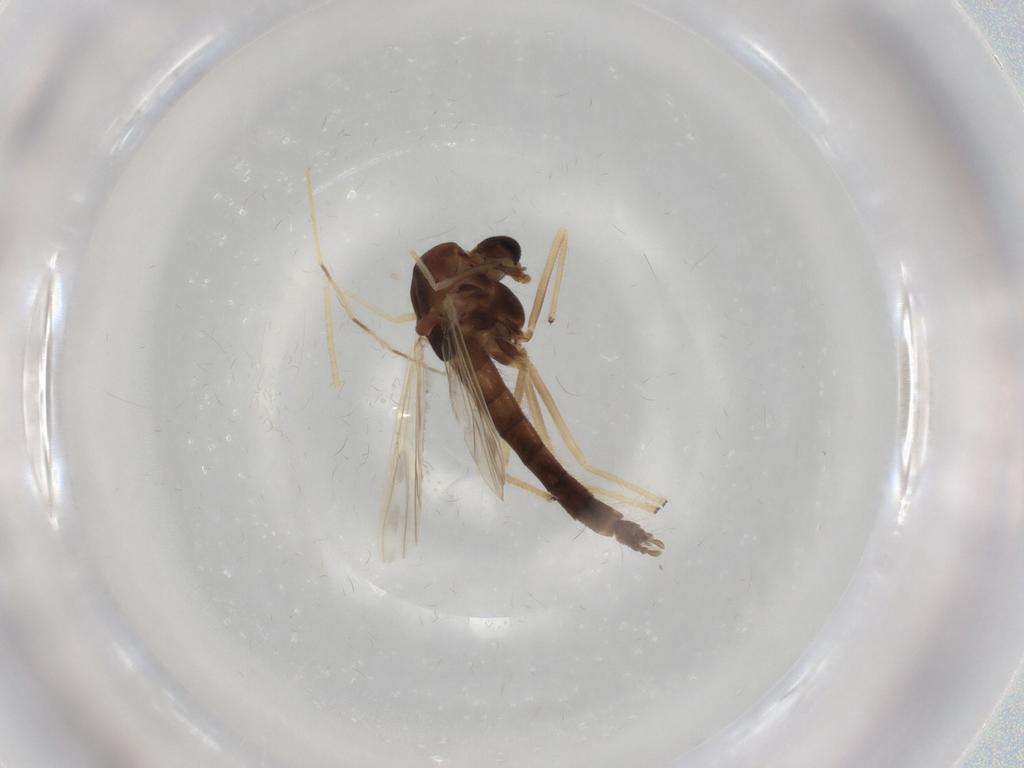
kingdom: Animalia
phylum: Arthropoda
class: Insecta
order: Diptera
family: Chironomidae
